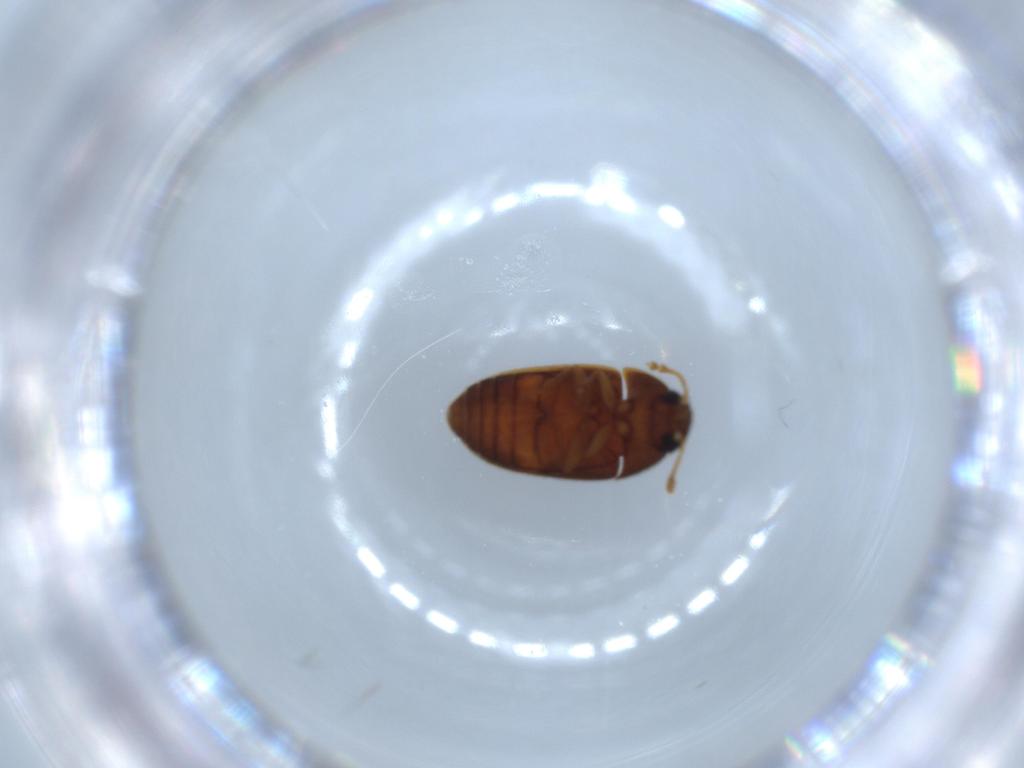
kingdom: Animalia
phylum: Arthropoda
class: Insecta
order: Coleoptera
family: Mycetophagidae
